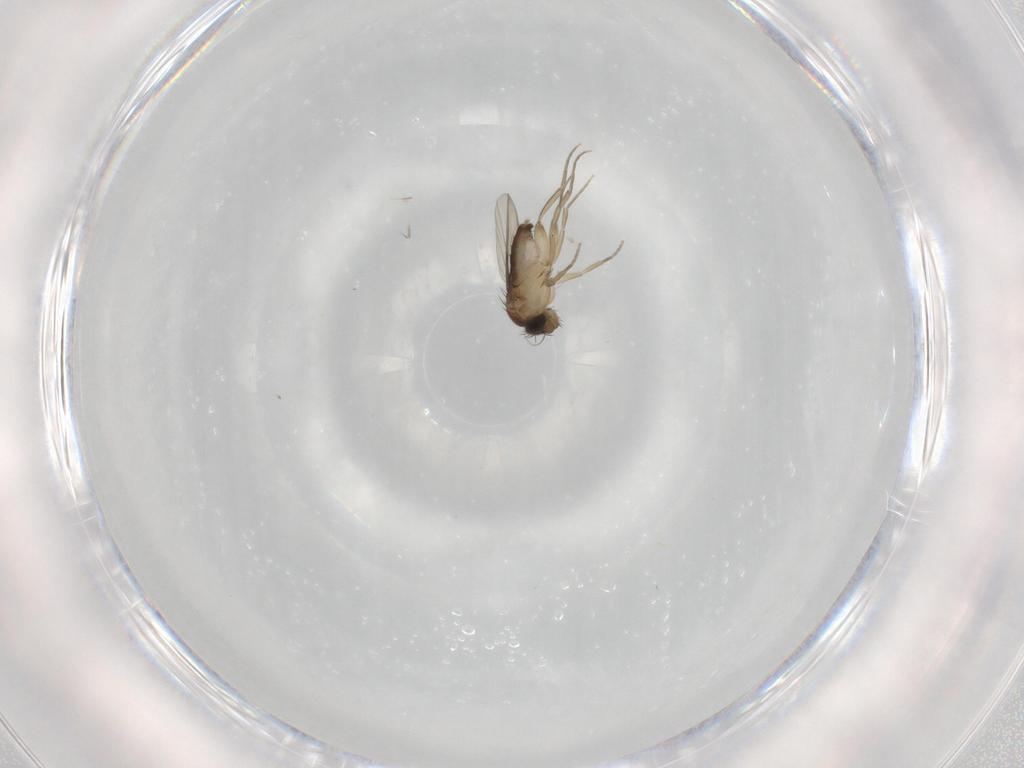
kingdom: Animalia
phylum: Arthropoda
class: Insecta
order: Diptera
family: Phoridae
